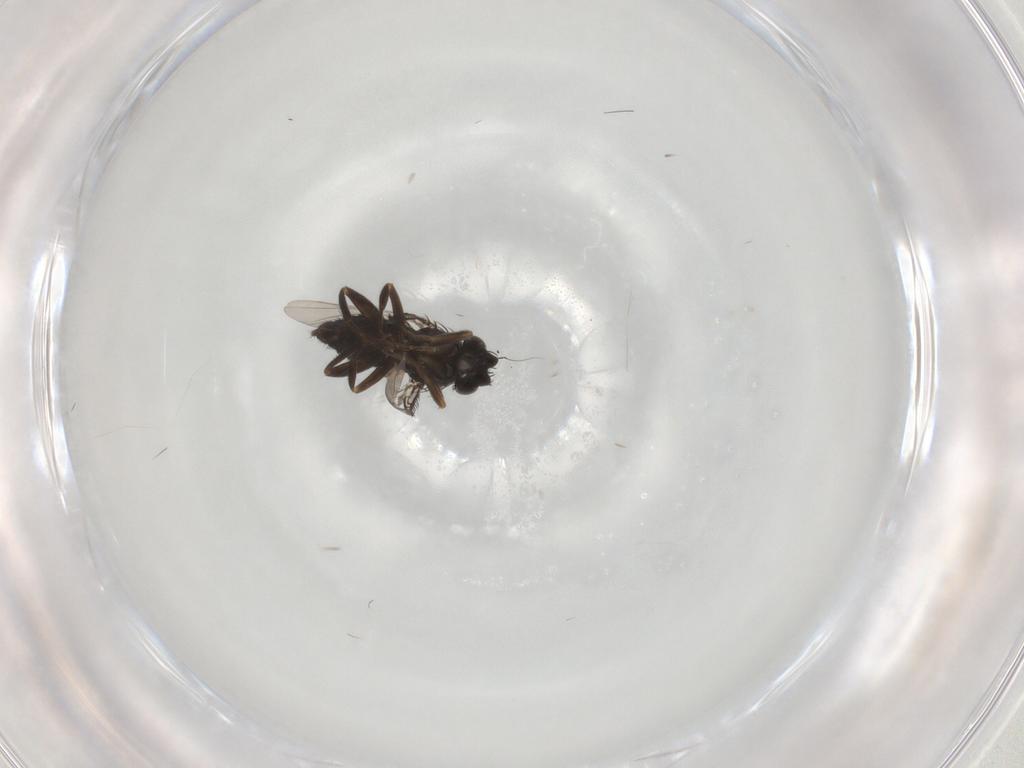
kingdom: Animalia
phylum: Arthropoda
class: Insecta
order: Diptera
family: Phoridae
